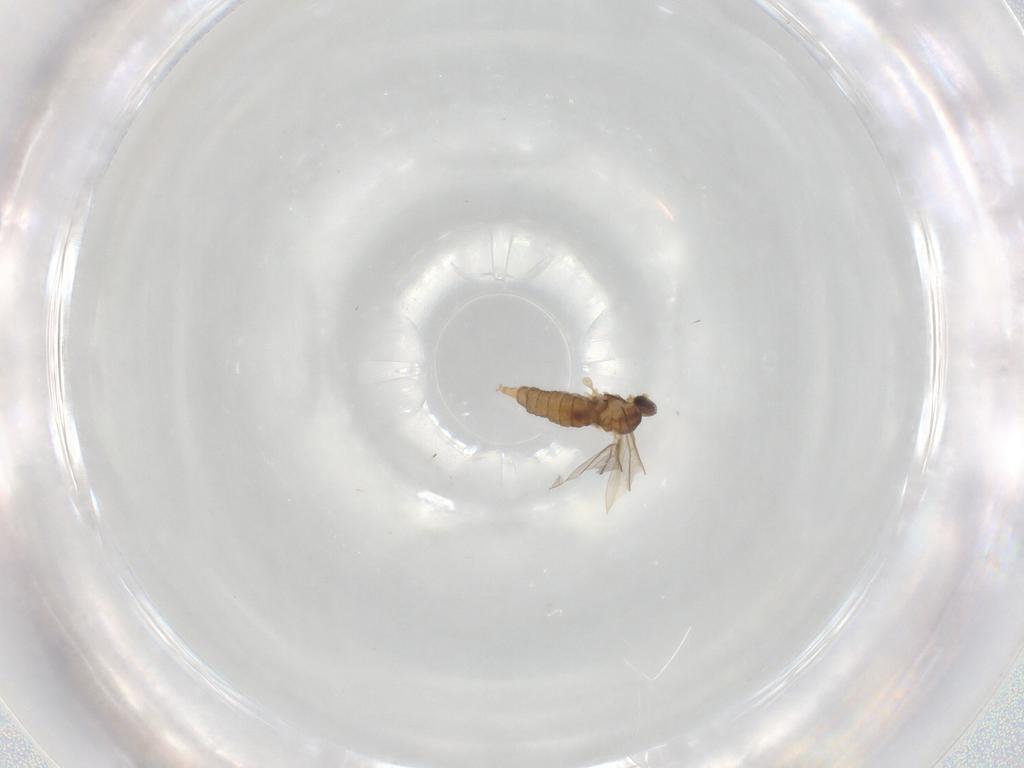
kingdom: Animalia
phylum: Arthropoda
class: Insecta
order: Diptera
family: Cecidomyiidae
